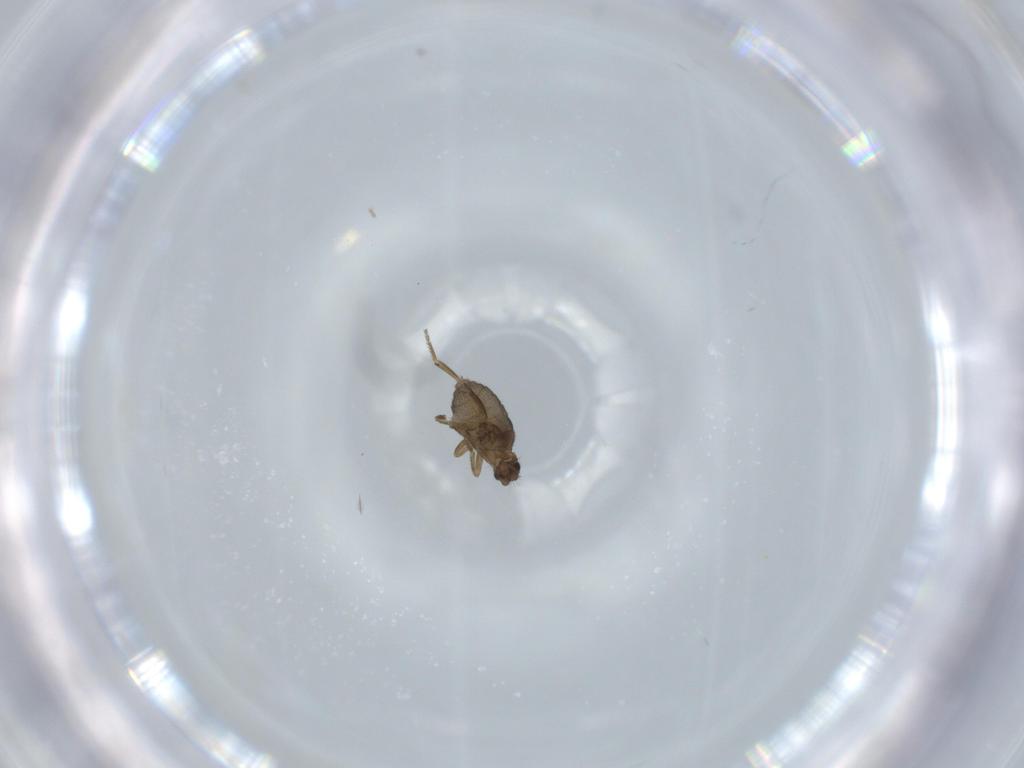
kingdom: Animalia
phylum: Arthropoda
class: Insecta
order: Diptera
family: Phoridae
